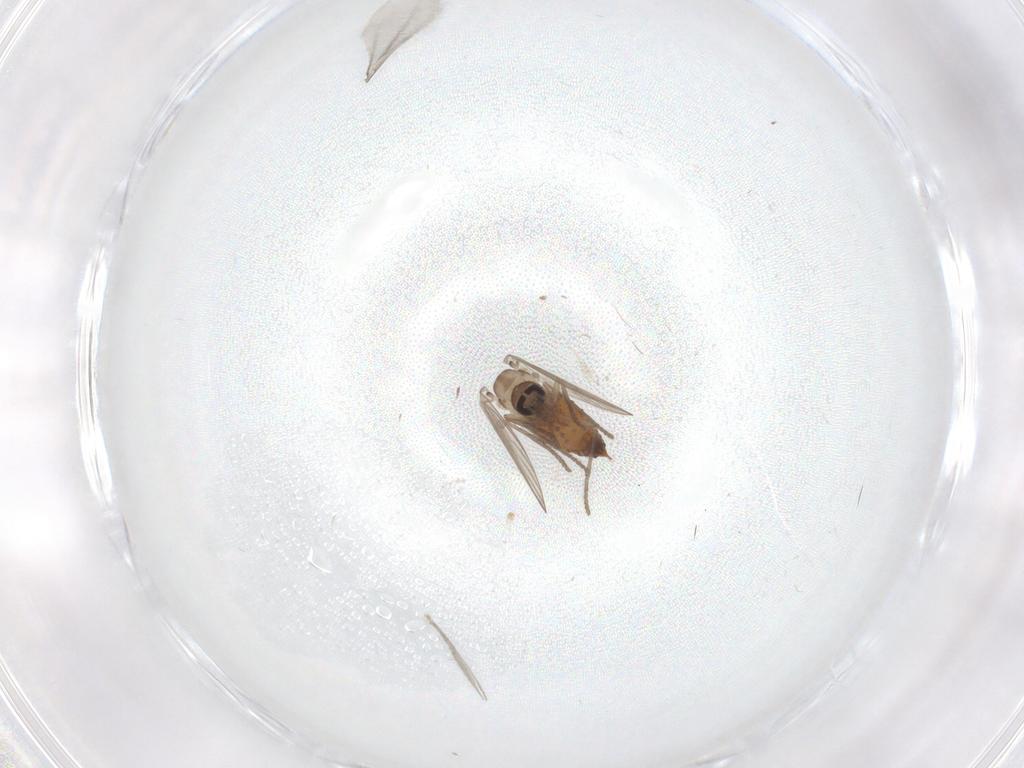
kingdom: Animalia
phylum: Arthropoda
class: Insecta
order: Diptera
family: Psychodidae
